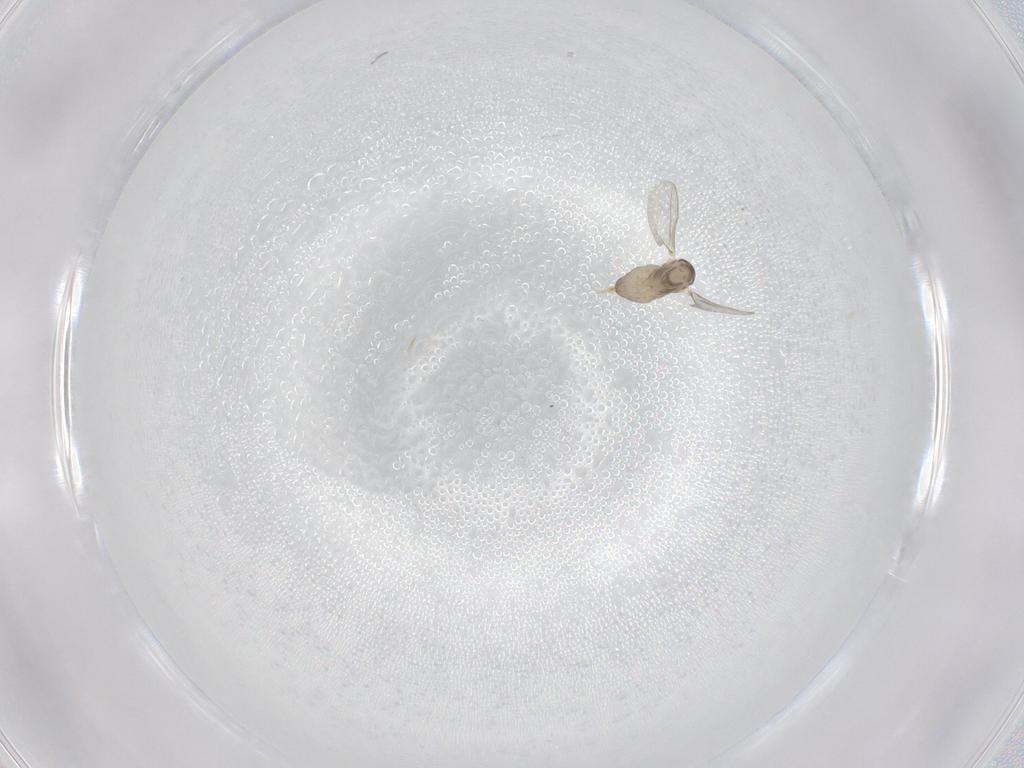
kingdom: Animalia
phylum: Arthropoda
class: Insecta
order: Diptera
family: Cecidomyiidae
